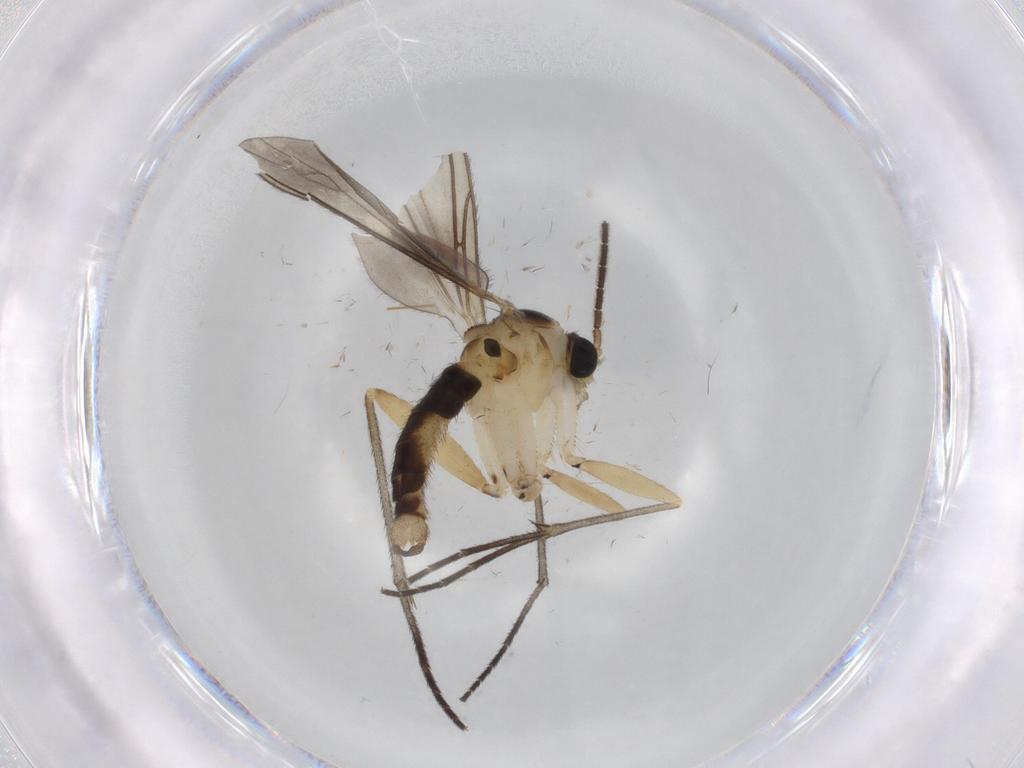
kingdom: Animalia
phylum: Arthropoda
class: Insecta
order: Diptera
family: Sciaridae
